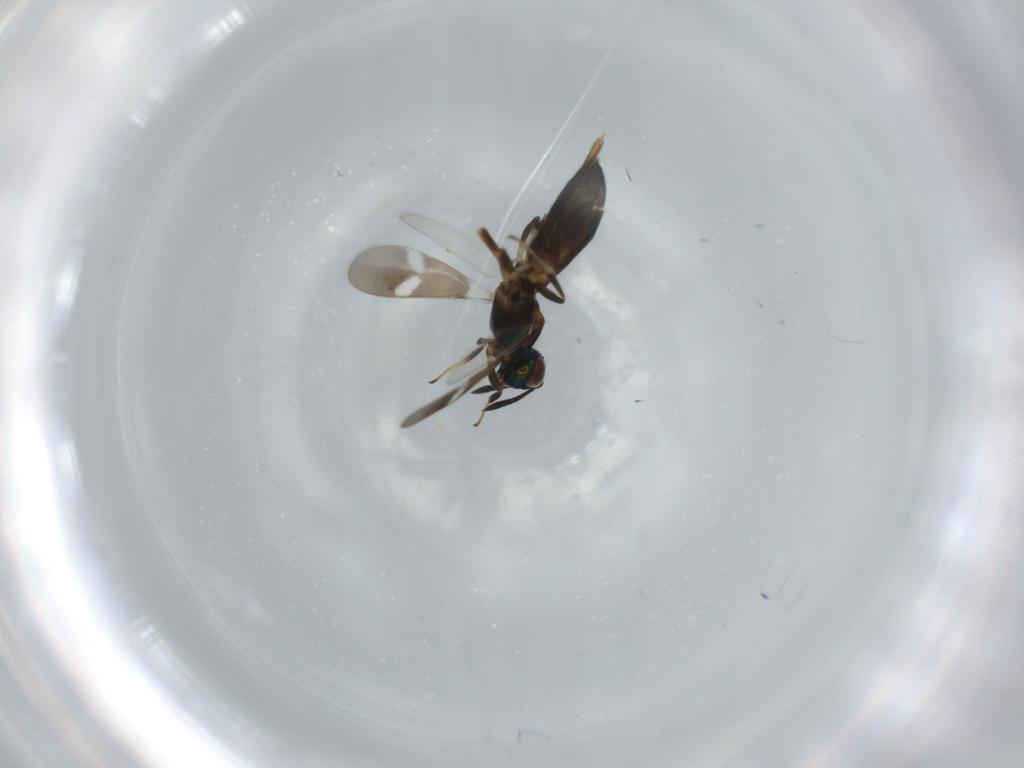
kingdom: Animalia
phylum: Arthropoda
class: Insecta
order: Hymenoptera
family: Eupelmidae
